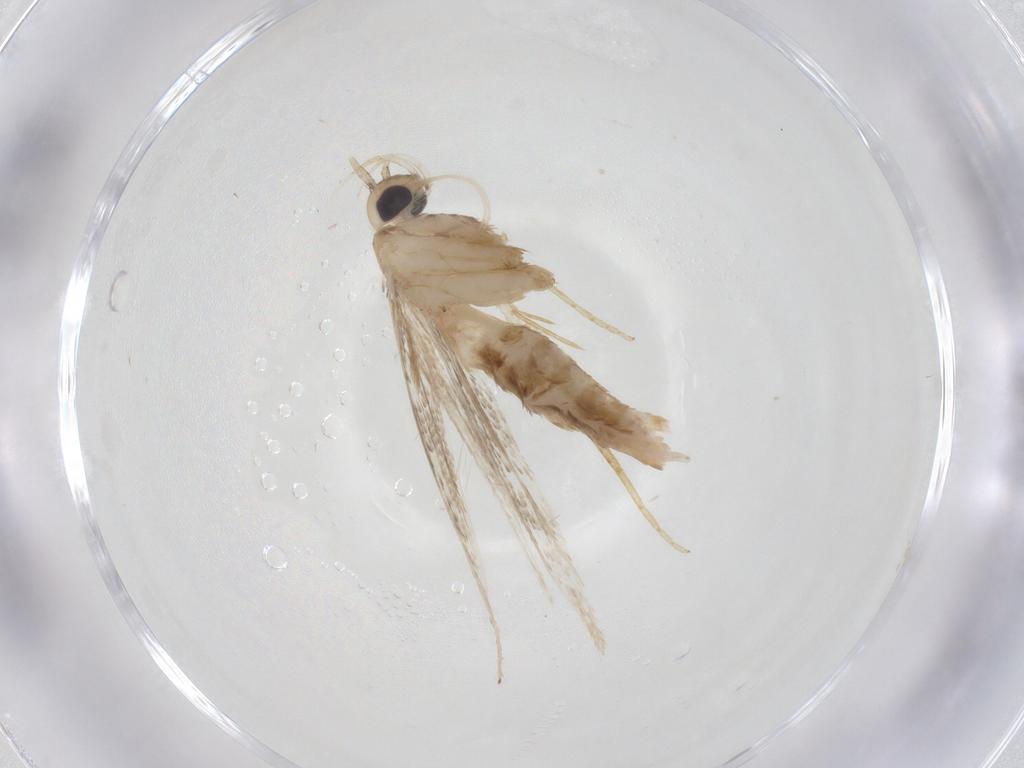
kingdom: Animalia
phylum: Arthropoda
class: Insecta
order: Lepidoptera
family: Coleophoridae
